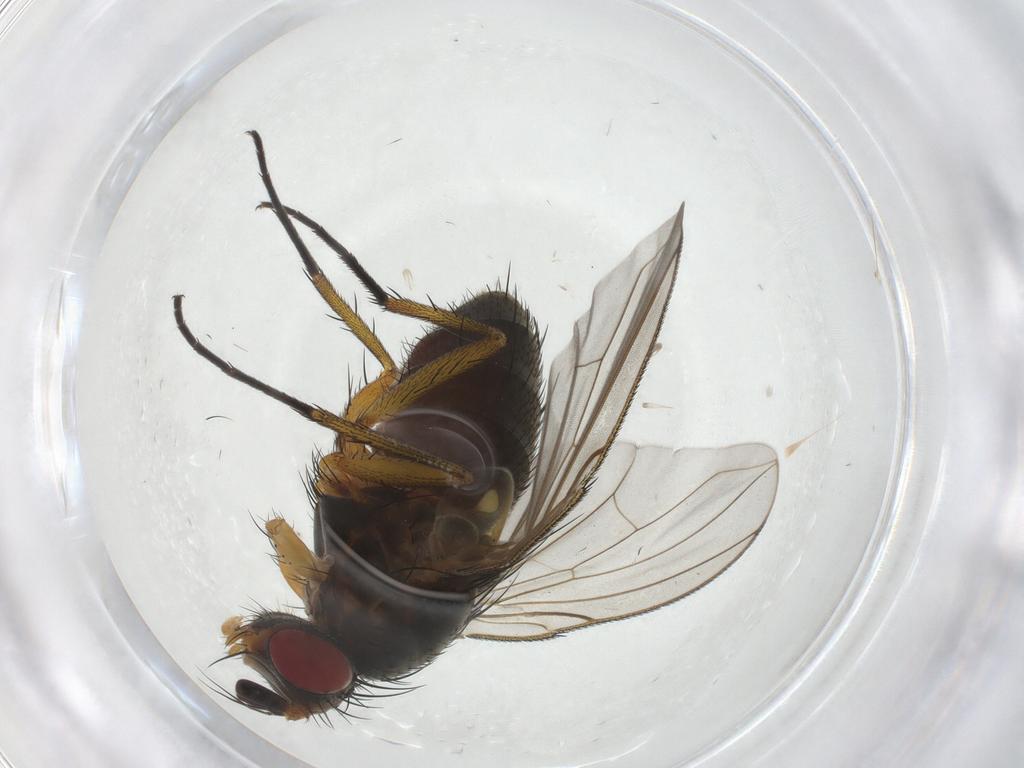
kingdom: Animalia
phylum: Arthropoda
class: Insecta
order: Diptera
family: Anthomyiidae
